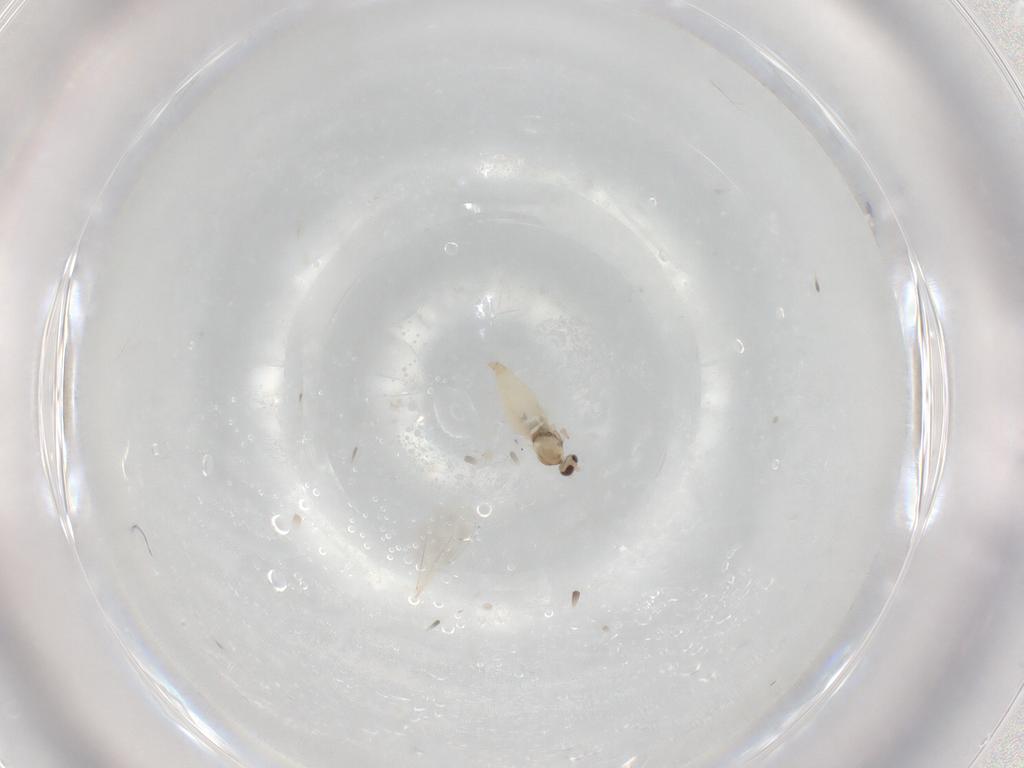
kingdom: Animalia
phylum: Arthropoda
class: Insecta
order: Diptera
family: Cecidomyiidae
